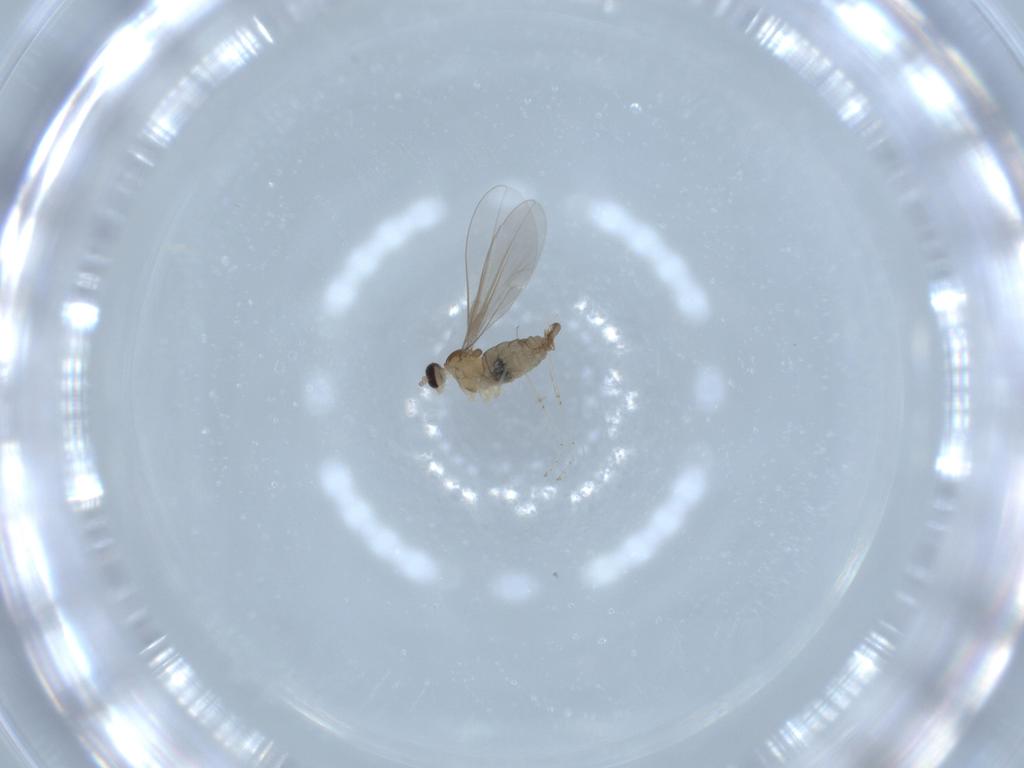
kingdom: Animalia
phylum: Arthropoda
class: Insecta
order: Diptera
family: Cecidomyiidae
